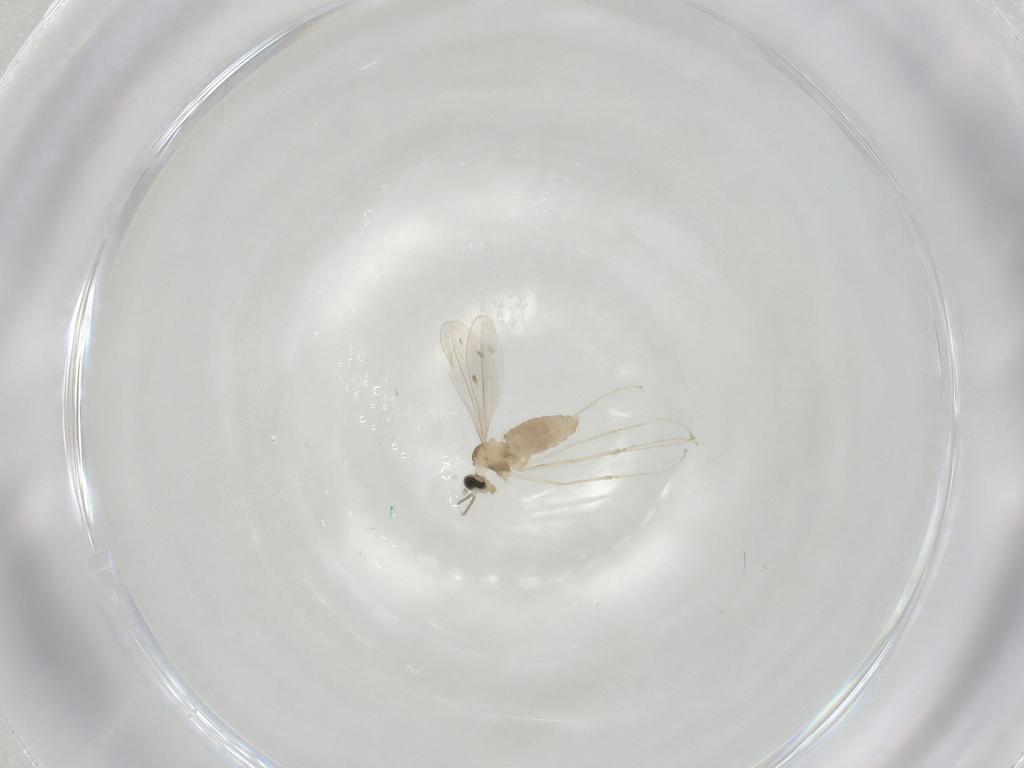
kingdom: Animalia
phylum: Arthropoda
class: Insecta
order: Diptera
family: Cecidomyiidae
